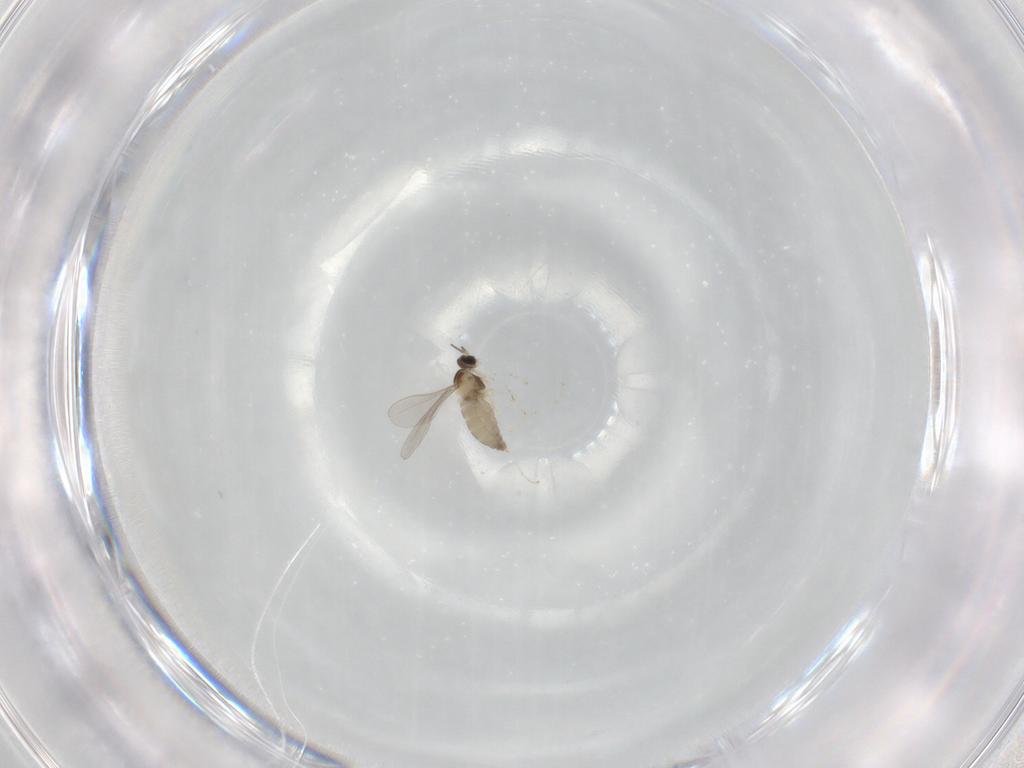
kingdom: Animalia
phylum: Arthropoda
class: Insecta
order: Diptera
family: Cecidomyiidae
